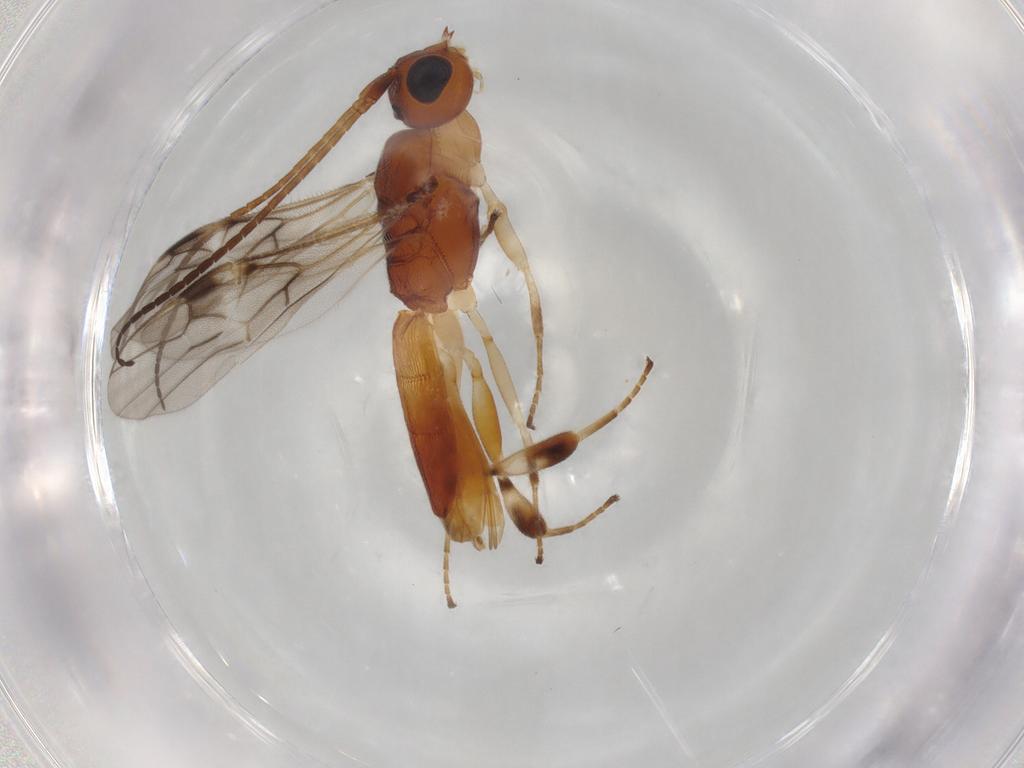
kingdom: Animalia
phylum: Arthropoda
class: Insecta
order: Hymenoptera
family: Braconidae
